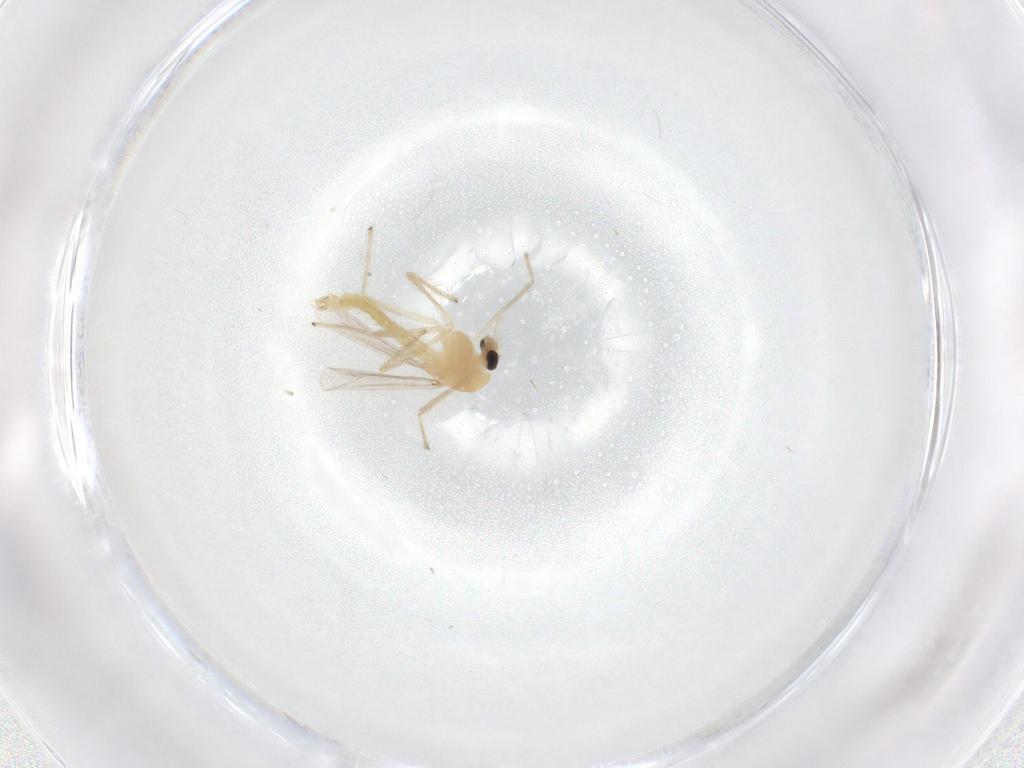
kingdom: Animalia
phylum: Arthropoda
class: Insecta
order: Diptera
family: Chironomidae
